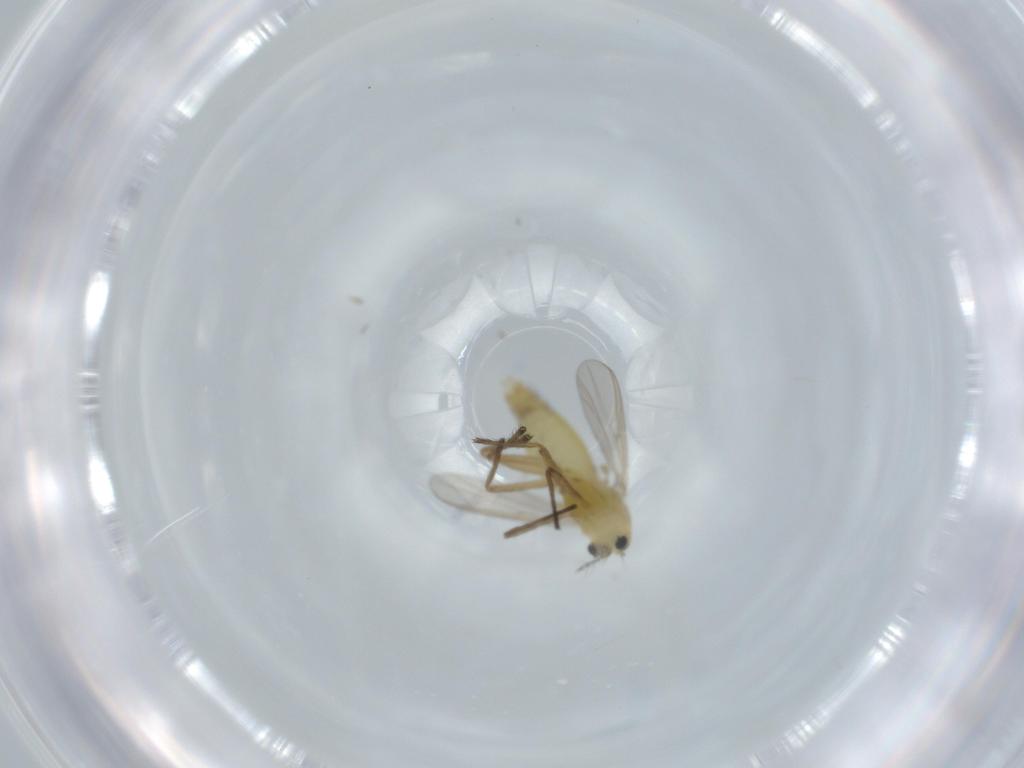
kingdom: Animalia
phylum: Arthropoda
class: Insecta
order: Diptera
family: Chironomidae
